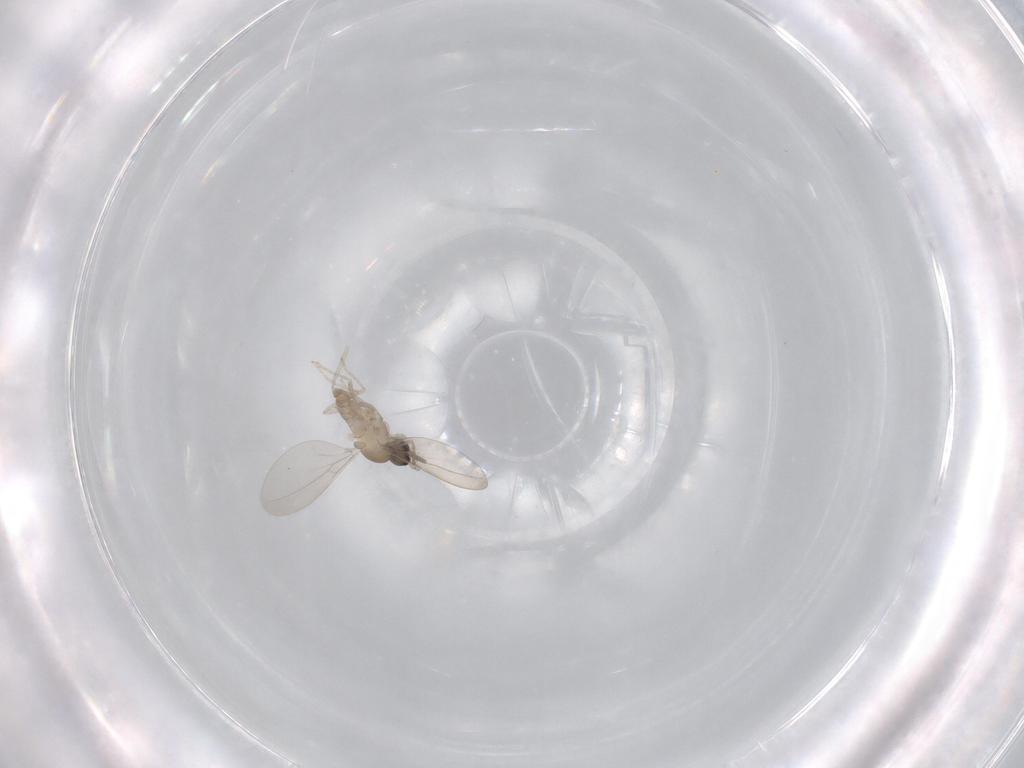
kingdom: Animalia
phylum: Arthropoda
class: Insecta
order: Diptera
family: Cecidomyiidae
